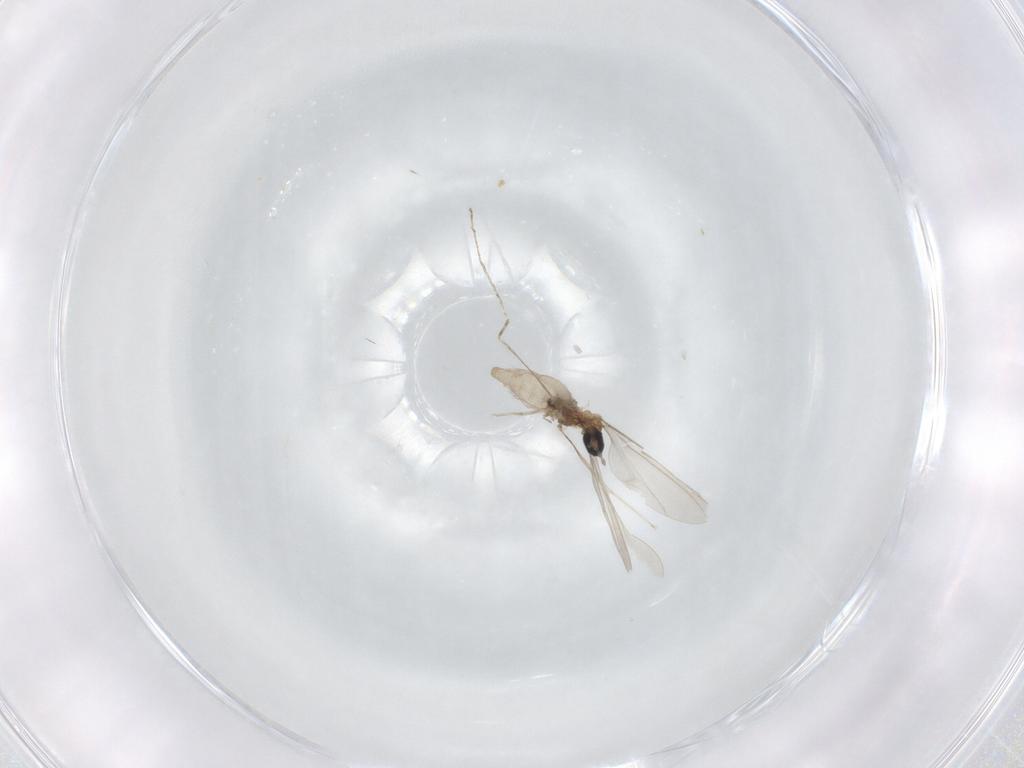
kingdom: Animalia
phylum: Arthropoda
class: Insecta
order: Diptera
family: Cecidomyiidae
